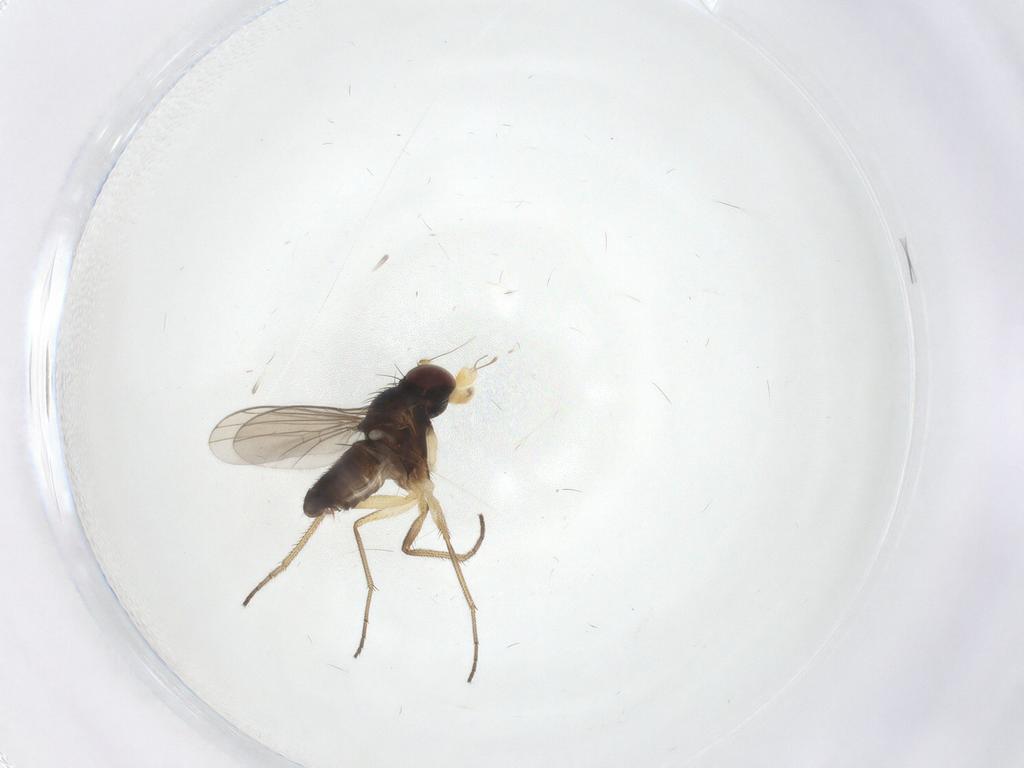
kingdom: Animalia
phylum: Arthropoda
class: Insecta
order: Diptera
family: Dolichopodidae
